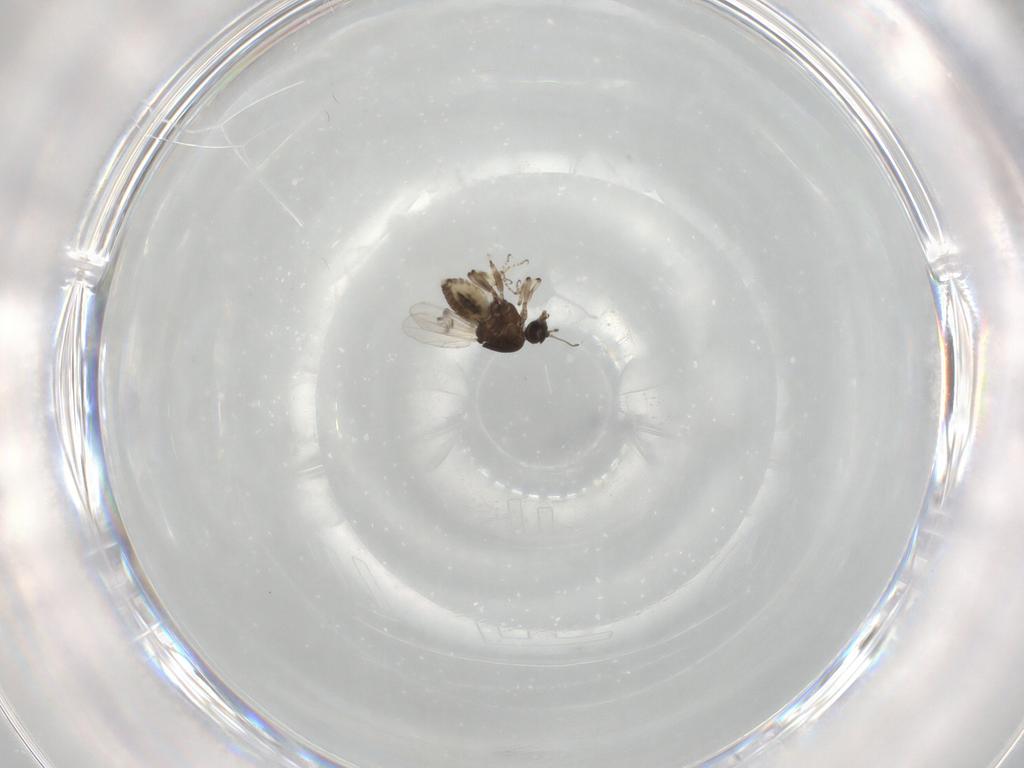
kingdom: Animalia
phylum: Arthropoda
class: Insecta
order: Diptera
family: Ceratopogonidae
